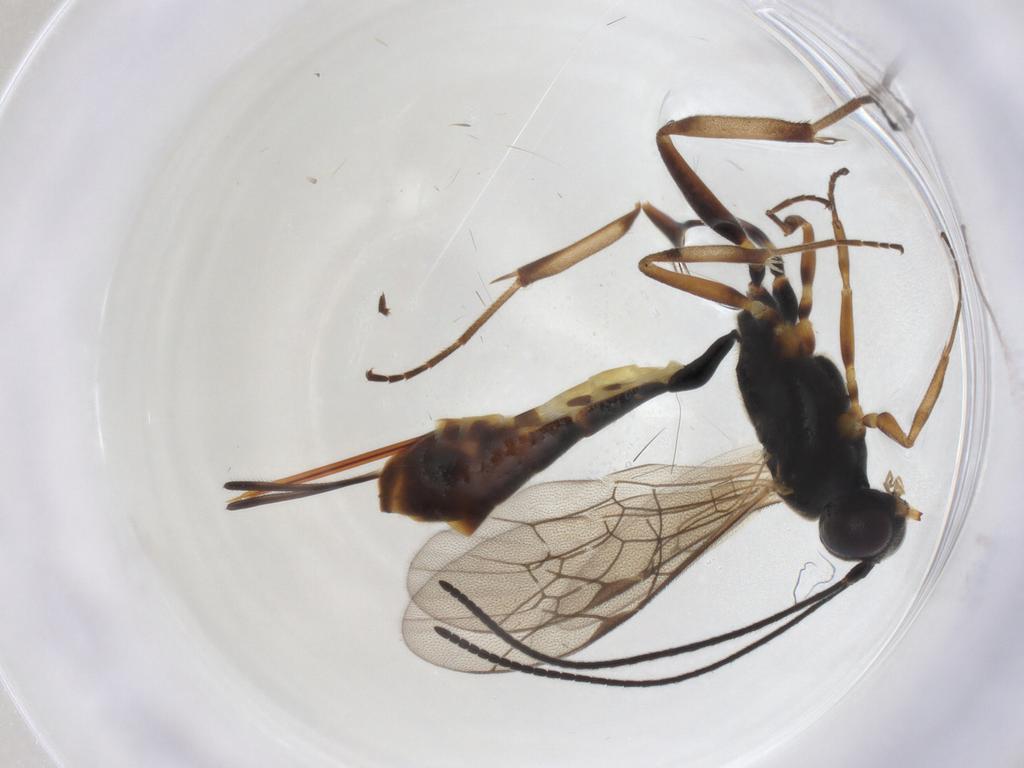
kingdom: Animalia
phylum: Arthropoda
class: Insecta
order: Hymenoptera
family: Ichneumonidae
